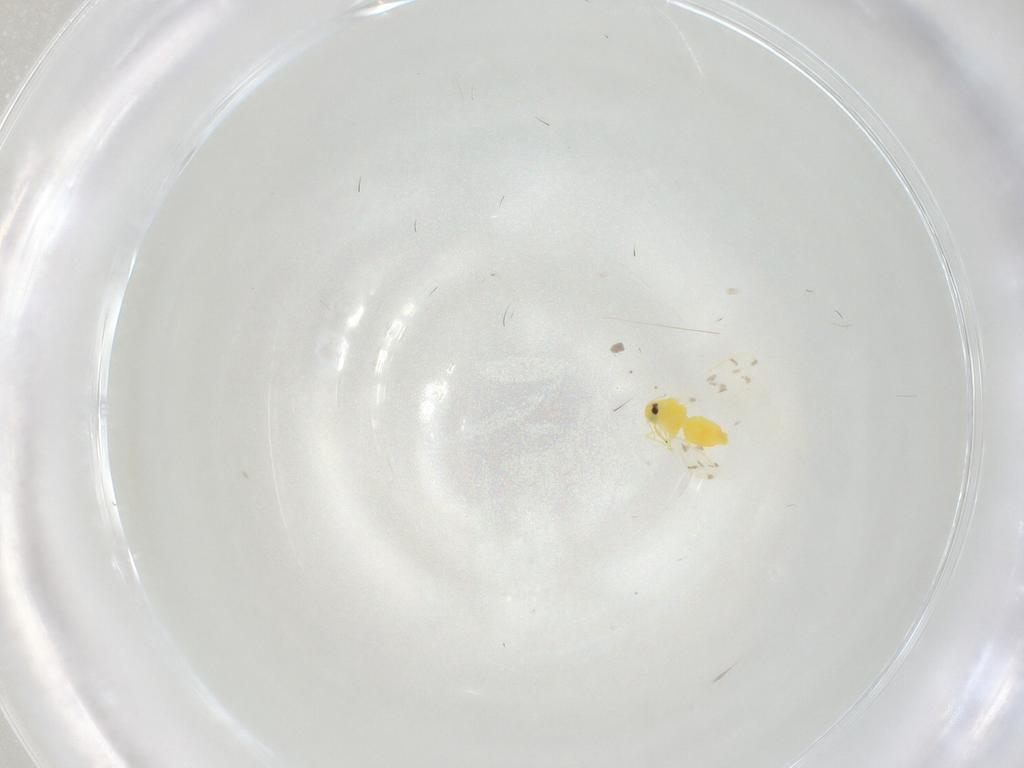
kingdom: Animalia
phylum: Arthropoda
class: Insecta
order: Hemiptera
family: Aleyrodidae
